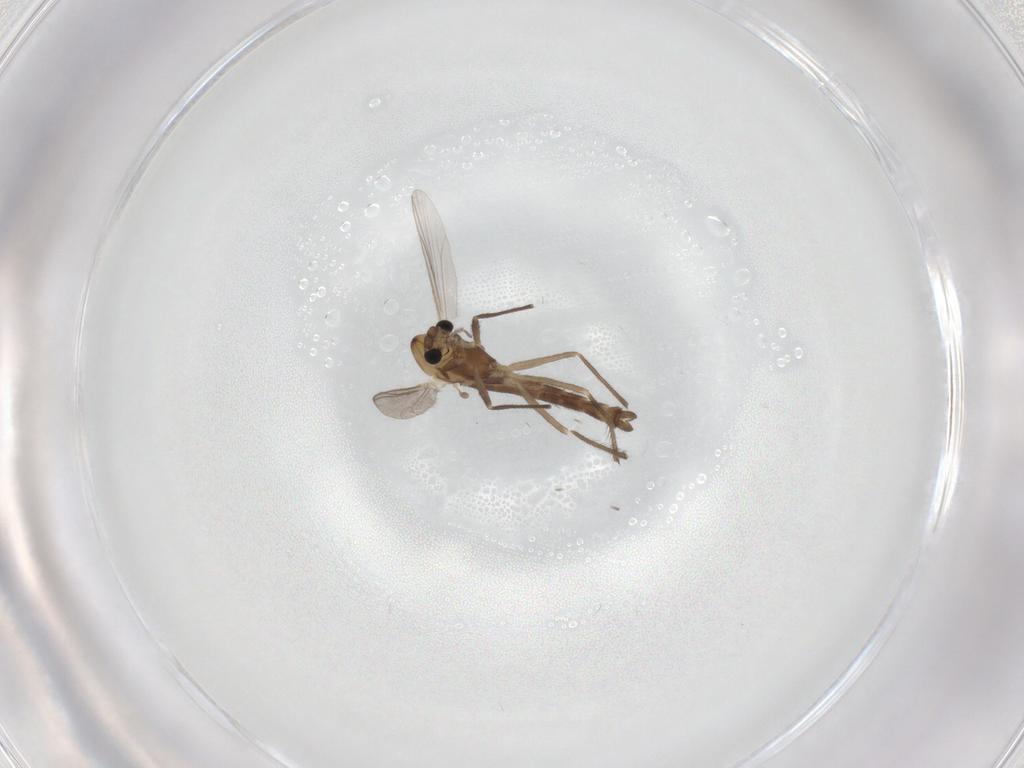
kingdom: Animalia
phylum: Arthropoda
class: Insecta
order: Diptera
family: Chironomidae
